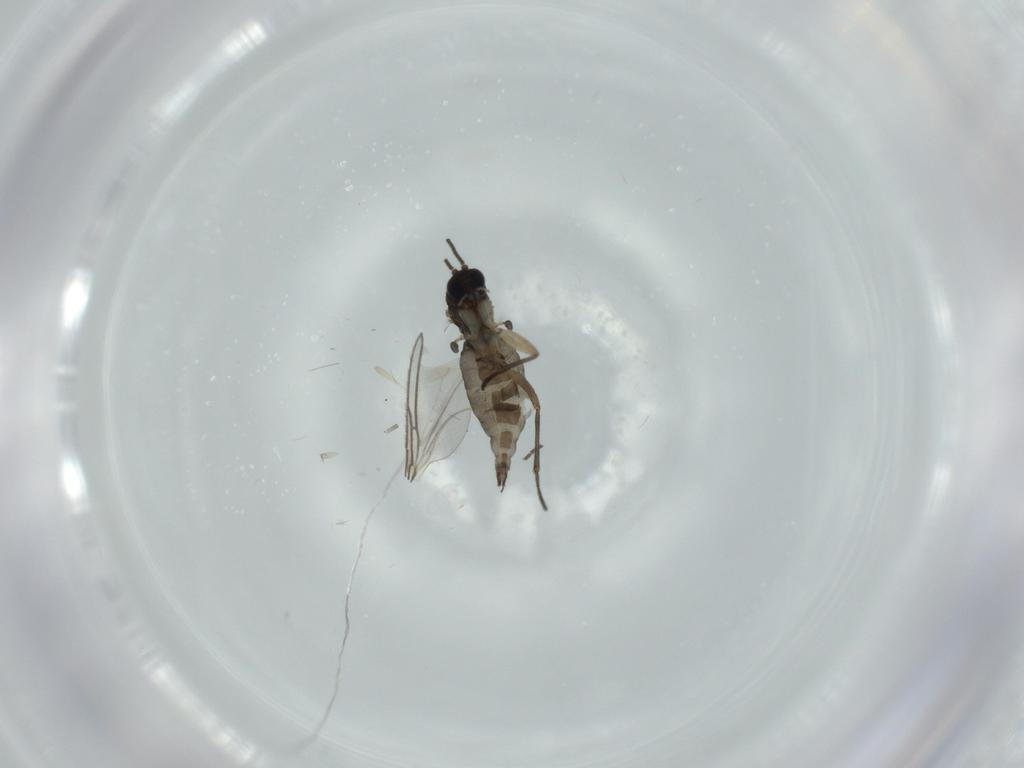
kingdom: Animalia
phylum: Arthropoda
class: Insecta
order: Diptera
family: Sciaridae
